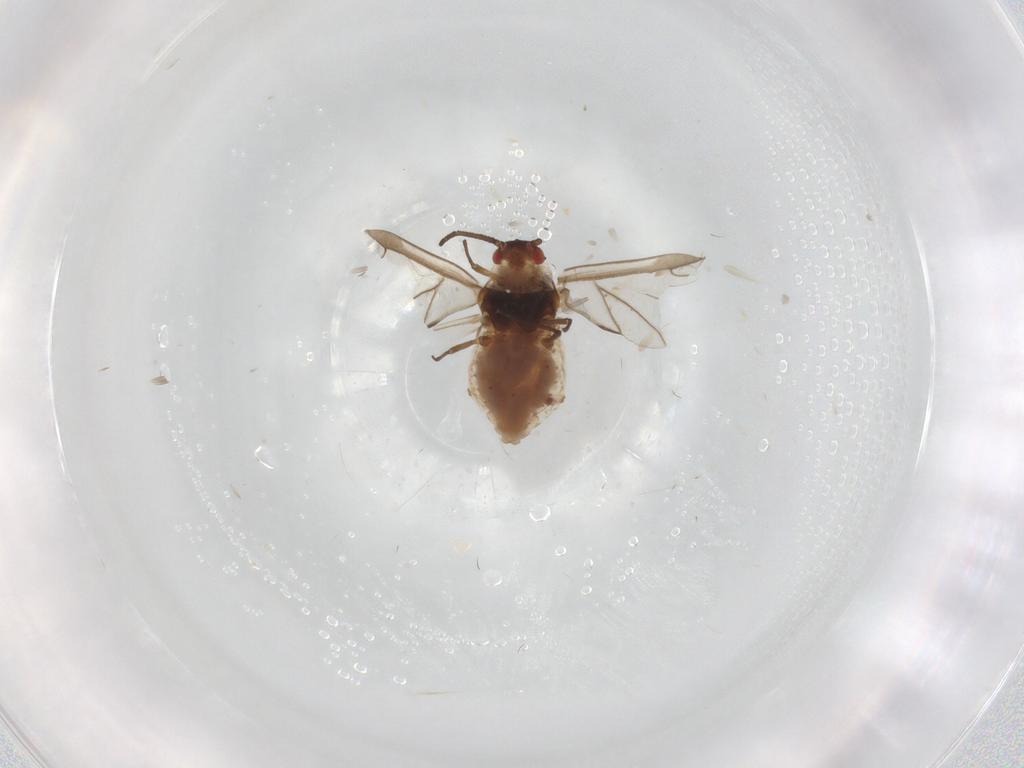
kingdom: Animalia
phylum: Arthropoda
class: Insecta
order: Hemiptera
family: Aphididae
